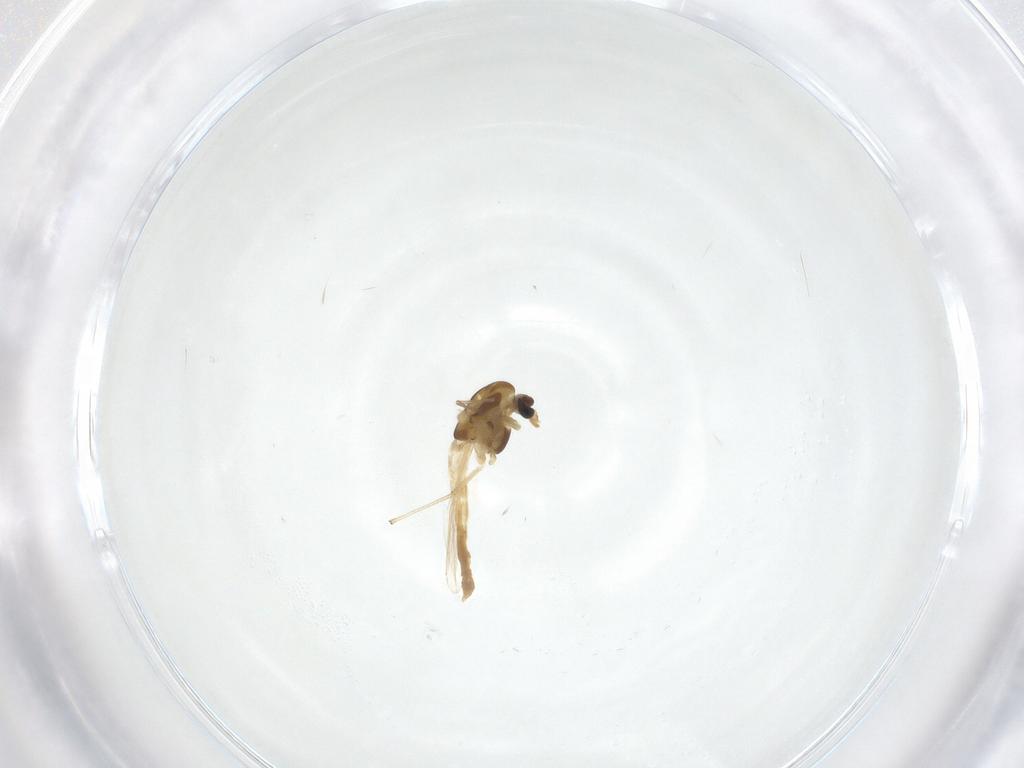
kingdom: Animalia
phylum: Arthropoda
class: Insecta
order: Diptera
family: Chironomidae
